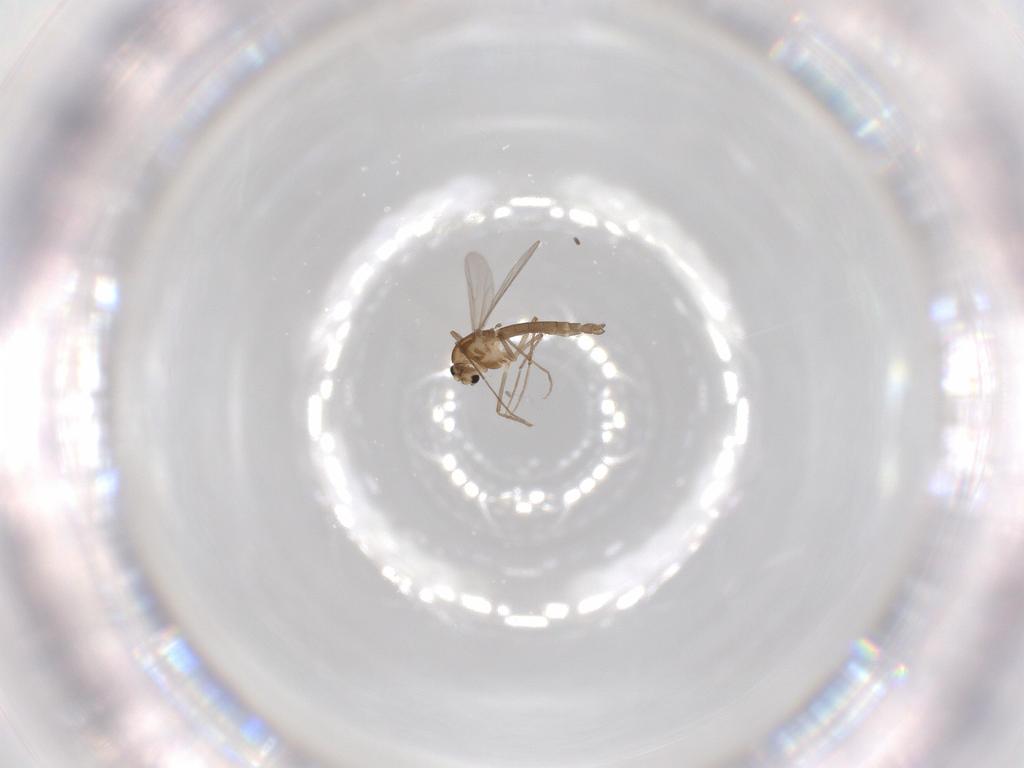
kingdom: Animalia
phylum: Arthropoda
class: Insecta
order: Diptera
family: Chironomidae
